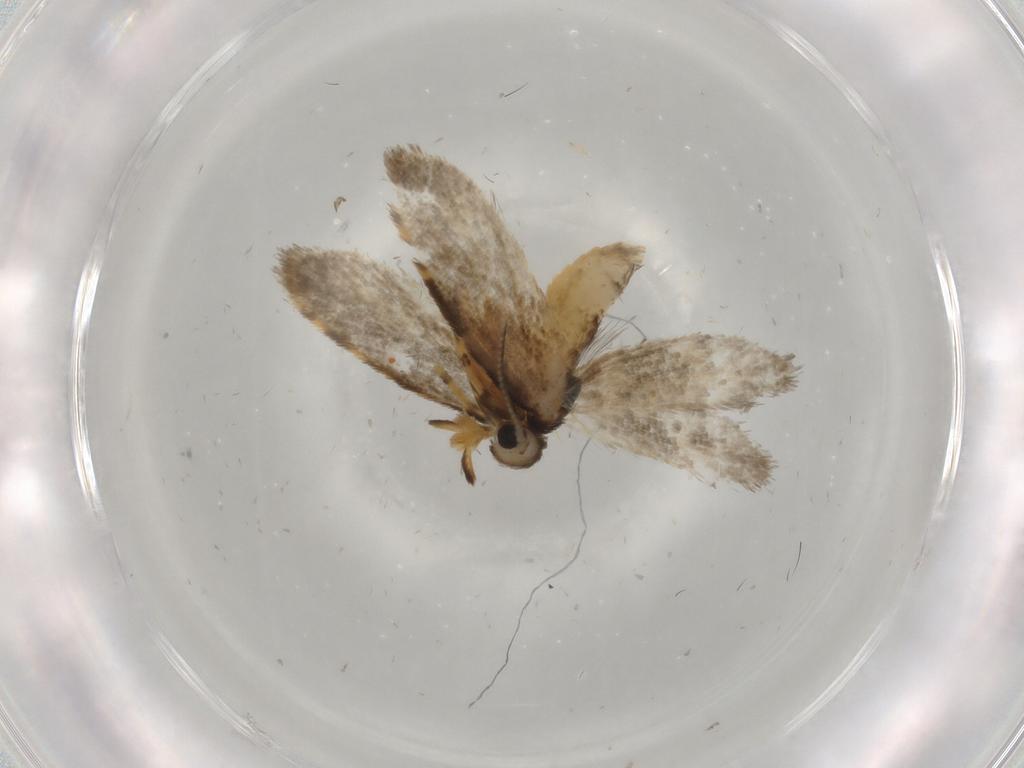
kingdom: Animalia
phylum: Arthropoda
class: Insecta
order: Lepidoptera
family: Psychidae
